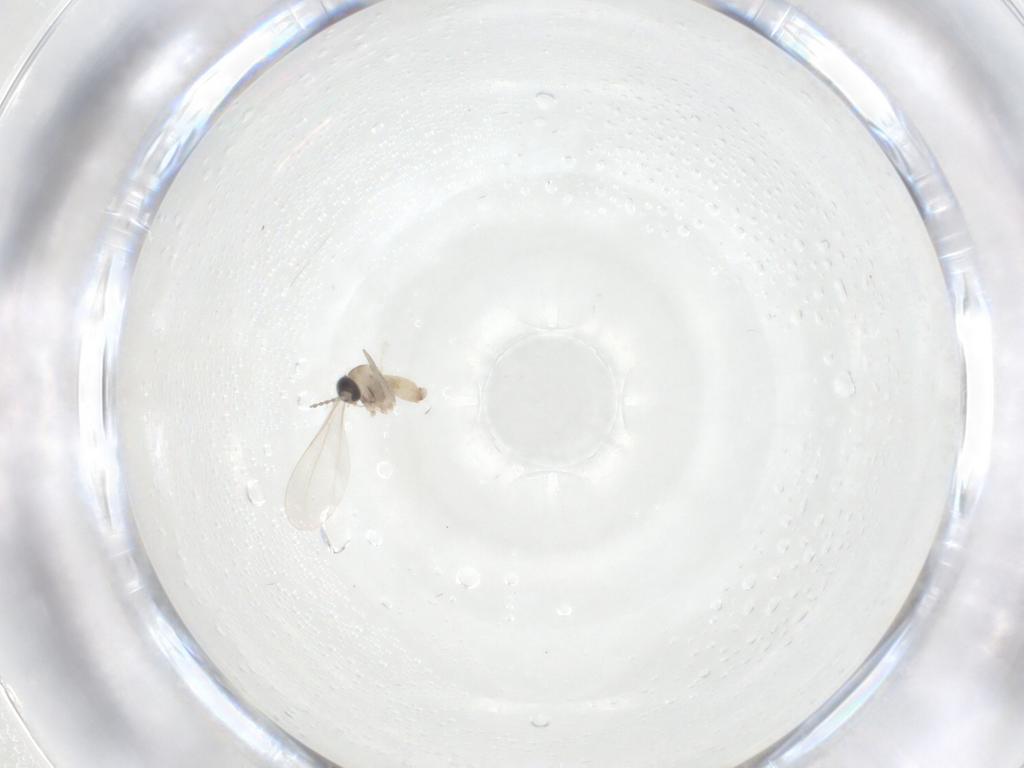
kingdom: Animalia
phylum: Arthropoda
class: Insecta
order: Diptera
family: Cecidomyiidae
